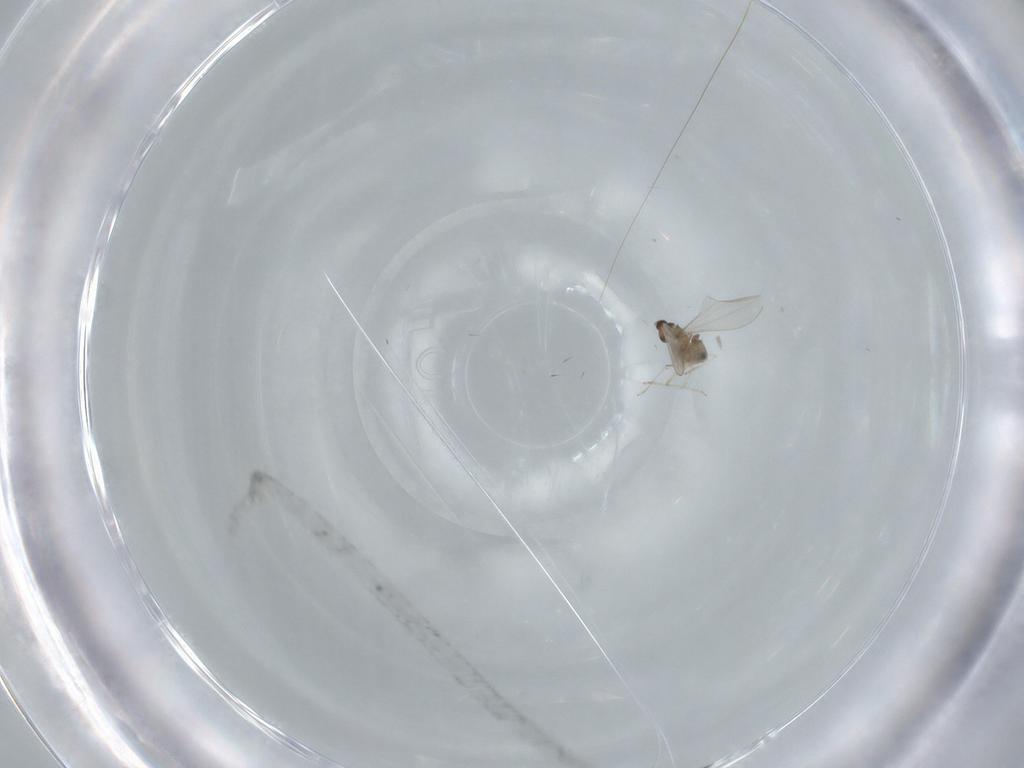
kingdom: Animalia
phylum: Arthropoda
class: Insecta
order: Diptera
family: Cecidomyiidae
